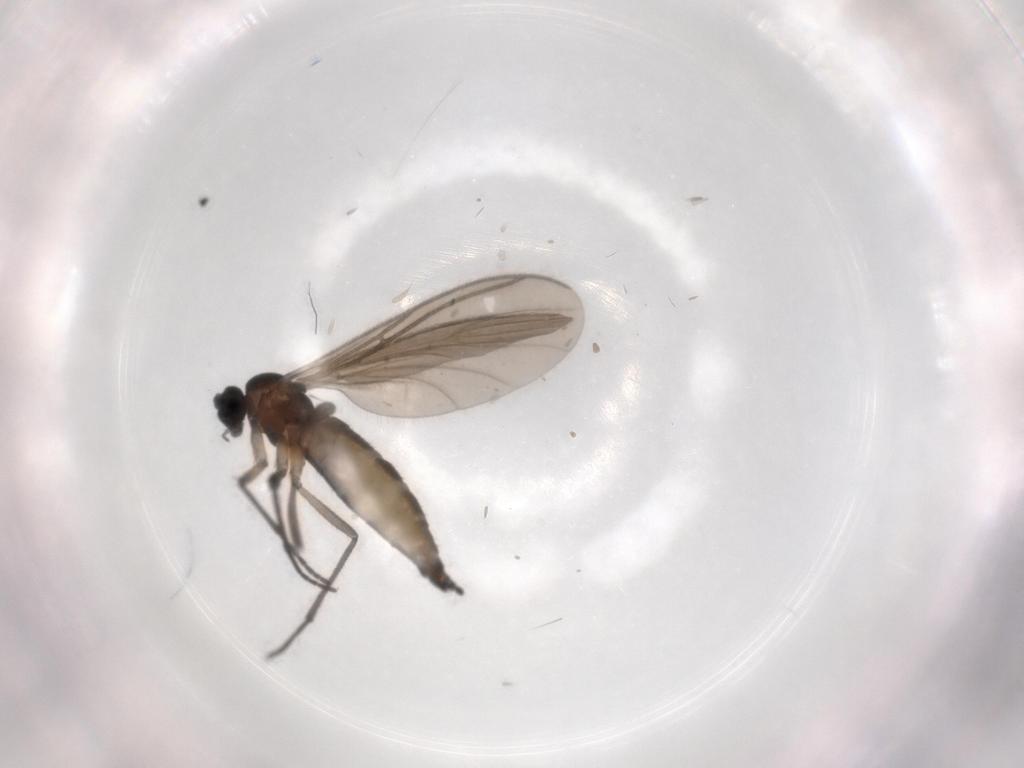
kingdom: Animalia
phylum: Arthropoda
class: Insecta
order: Diptera
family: Sciaridae
